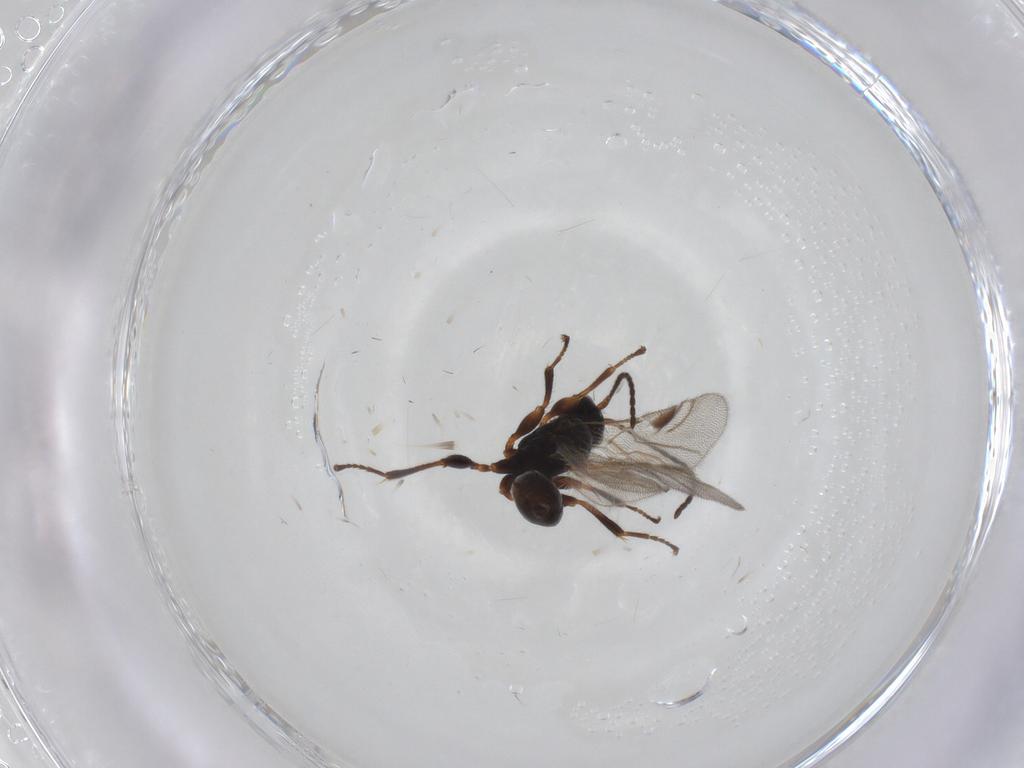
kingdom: Animalia
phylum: Arthropoda
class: Insecta
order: Hymenoptera
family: Braconidae
